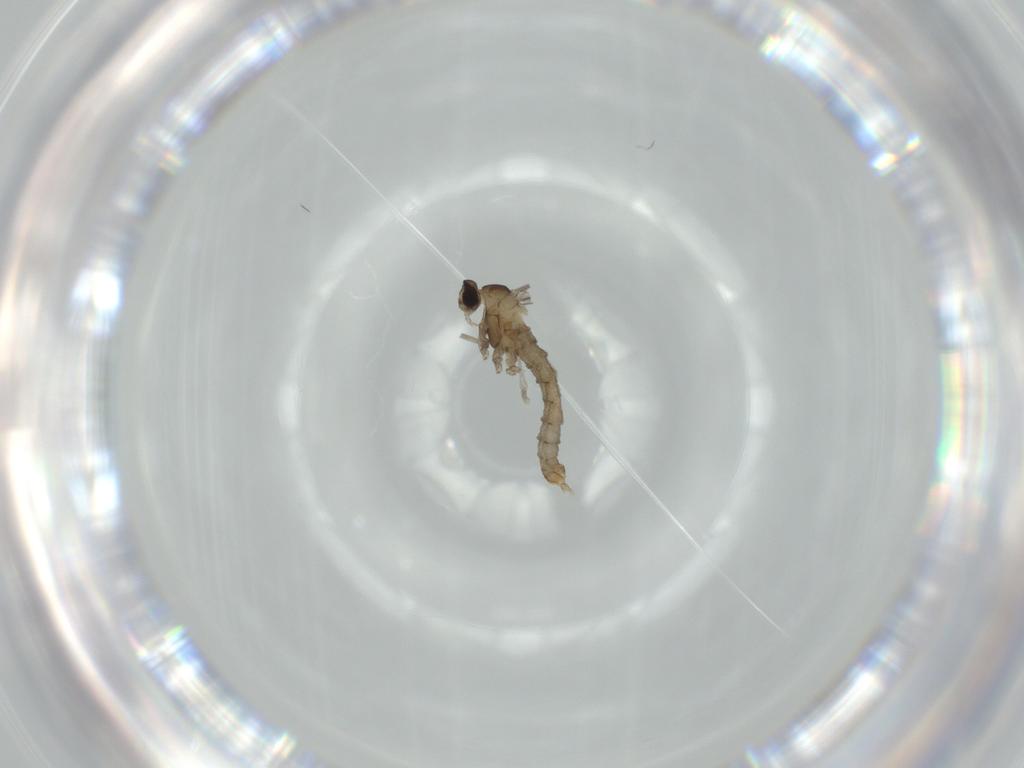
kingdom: Animalia
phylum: Arthropoda
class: Insecta
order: Diptera
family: Cecidomyiidae
